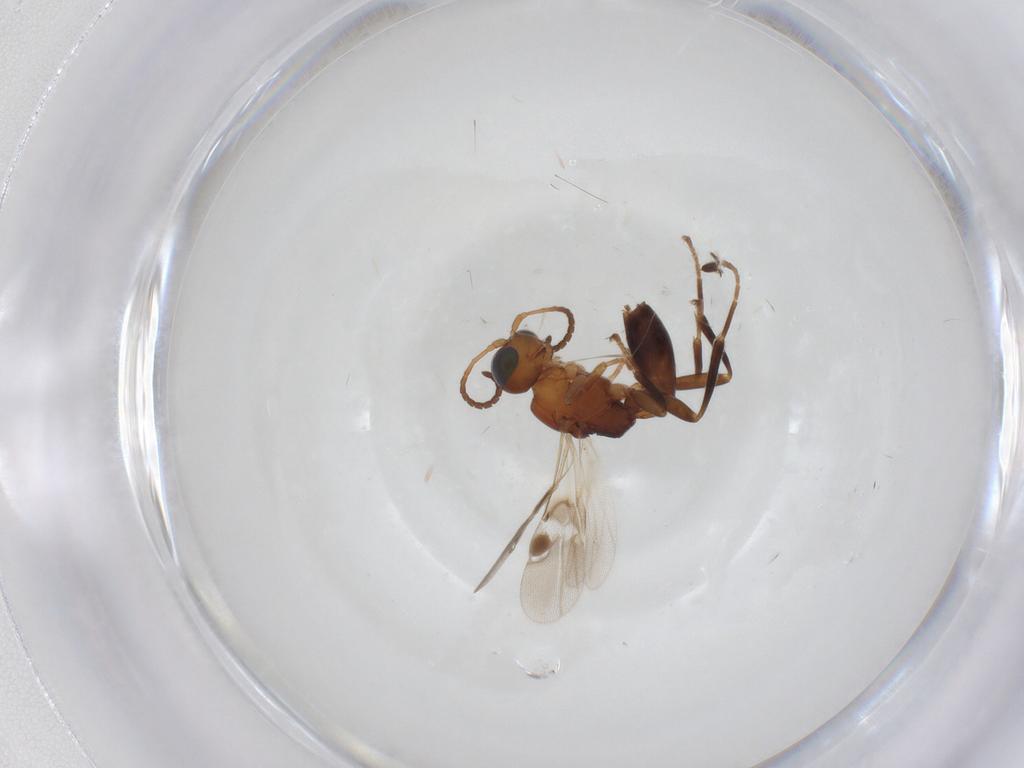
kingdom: Animalia
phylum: Arthropoda
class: Insecta
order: Hymenoptera
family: Braconidae
